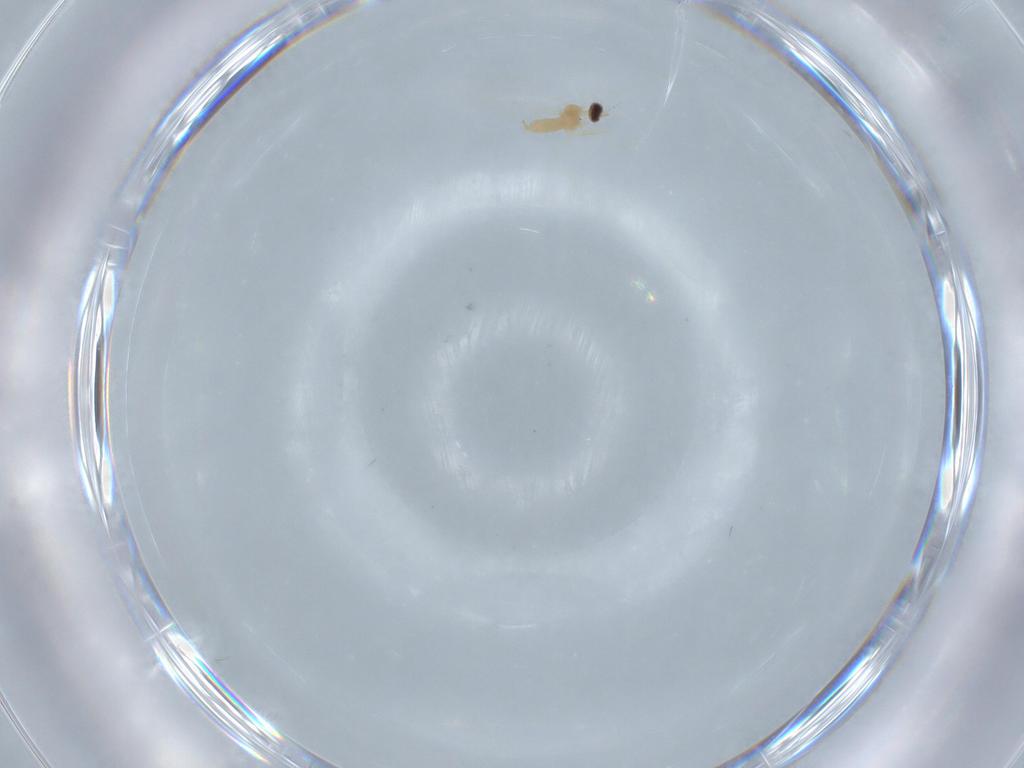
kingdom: Animalia
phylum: Arthropoda
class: Insecta
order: Diptera
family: Drosophilidae
